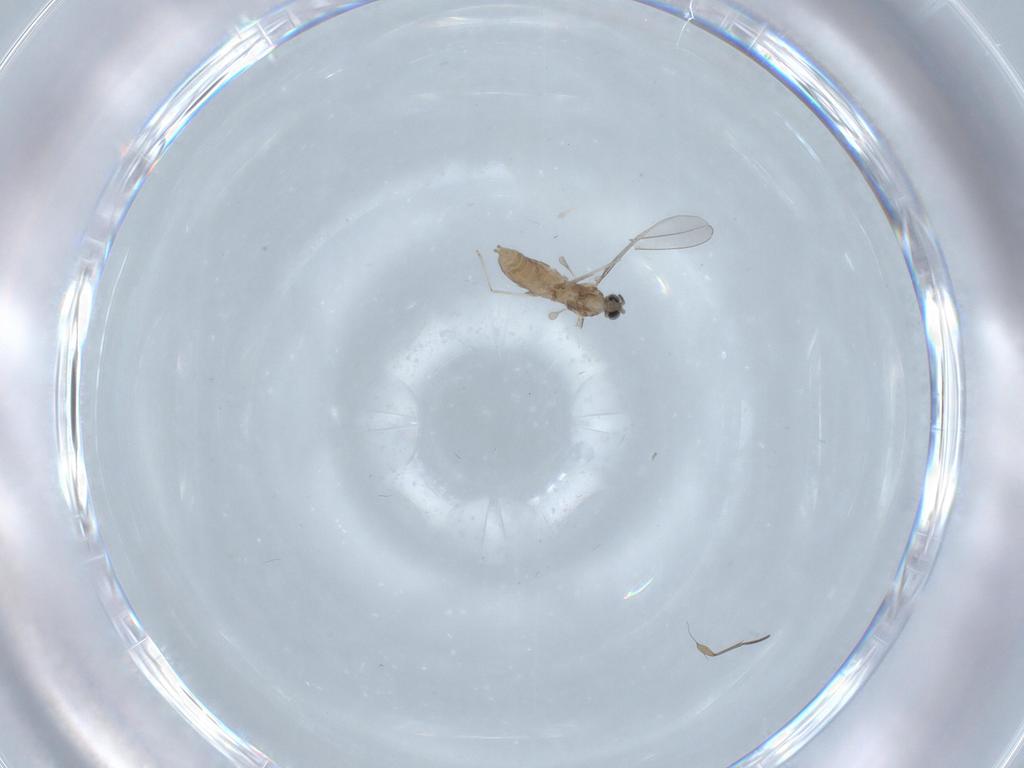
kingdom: Animalia
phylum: Arthropoda
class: Insecta
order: Diptera
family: Cecidomyiidae
